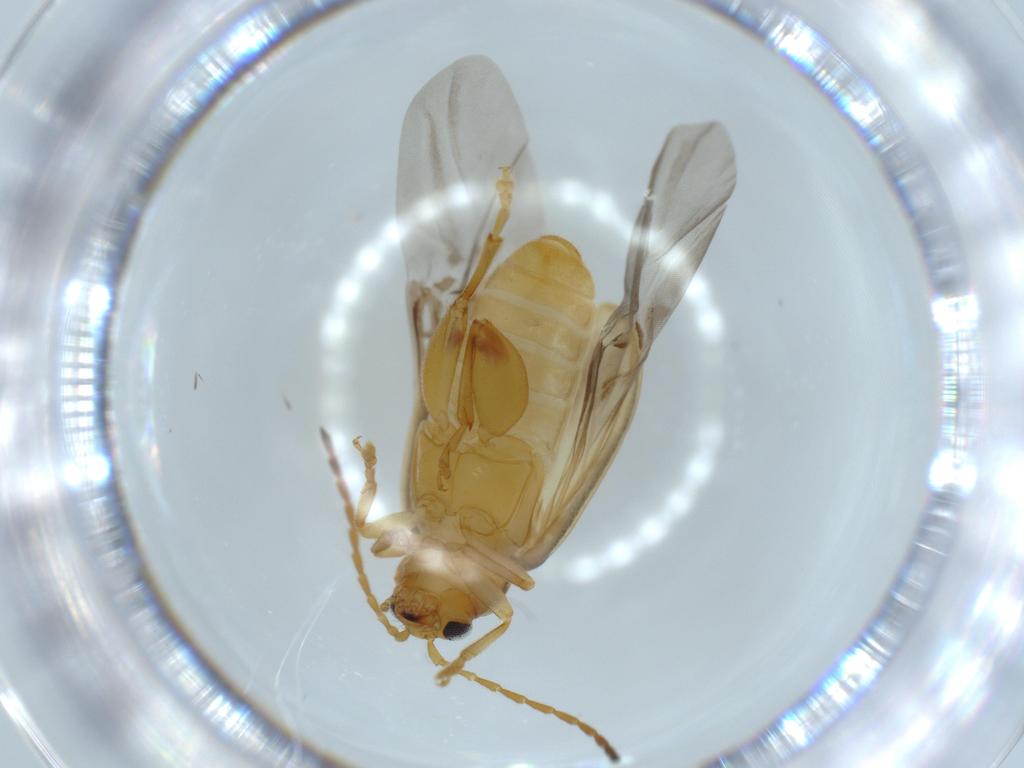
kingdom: Animalia
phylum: Arthropoda
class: Insecta
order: Coleoptera
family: Chrysomelidae
